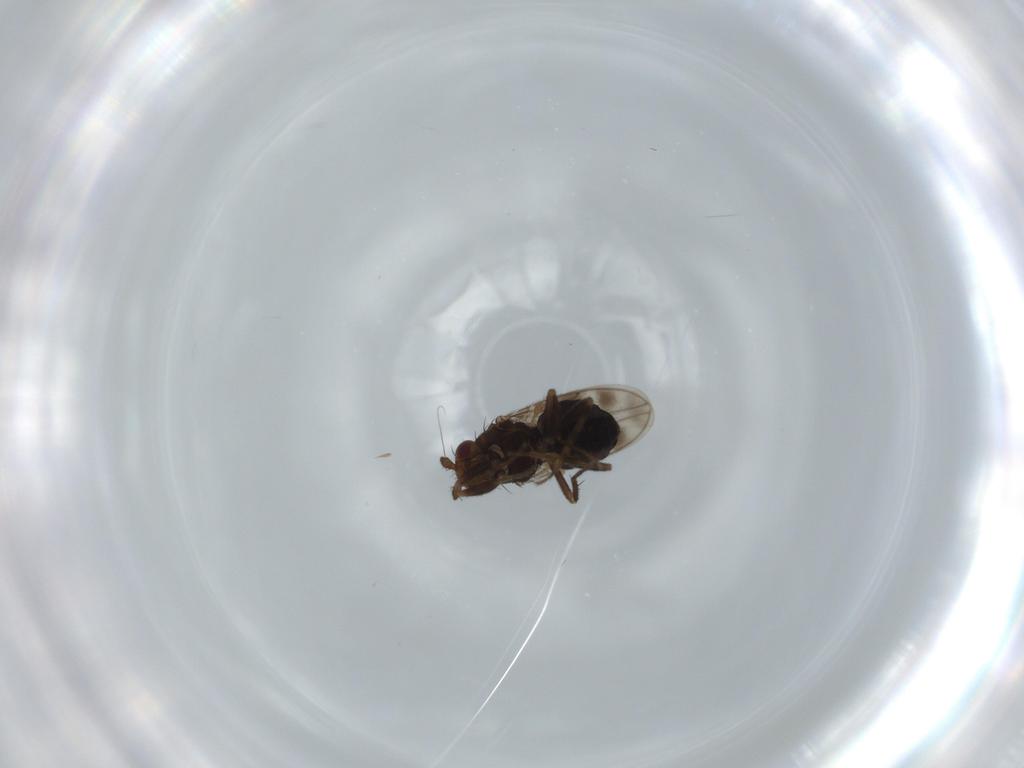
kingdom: Animalia
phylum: Arthropoda
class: Insecta
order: Diptera
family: Sphaeroceridae
